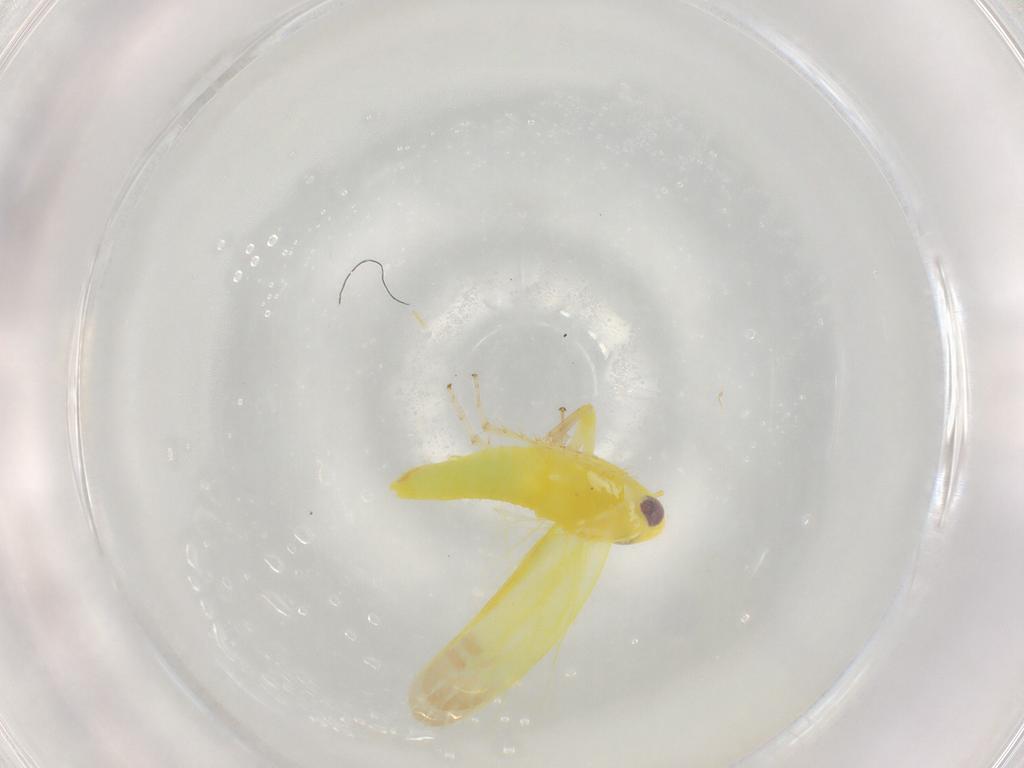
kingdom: Animalia
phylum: Arthropoda
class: Insecta
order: Hemiptera
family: Cicadellidae
